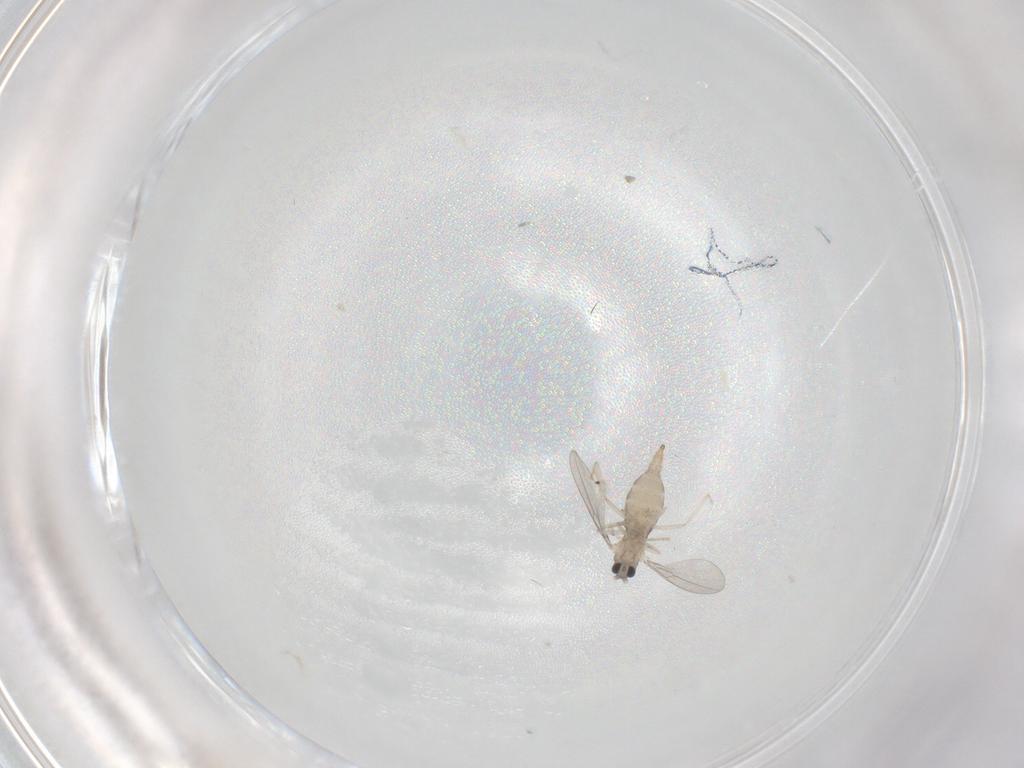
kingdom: Animalia
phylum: Arthropoda
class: Insecta
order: Diptera
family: Cecidomyiidae
